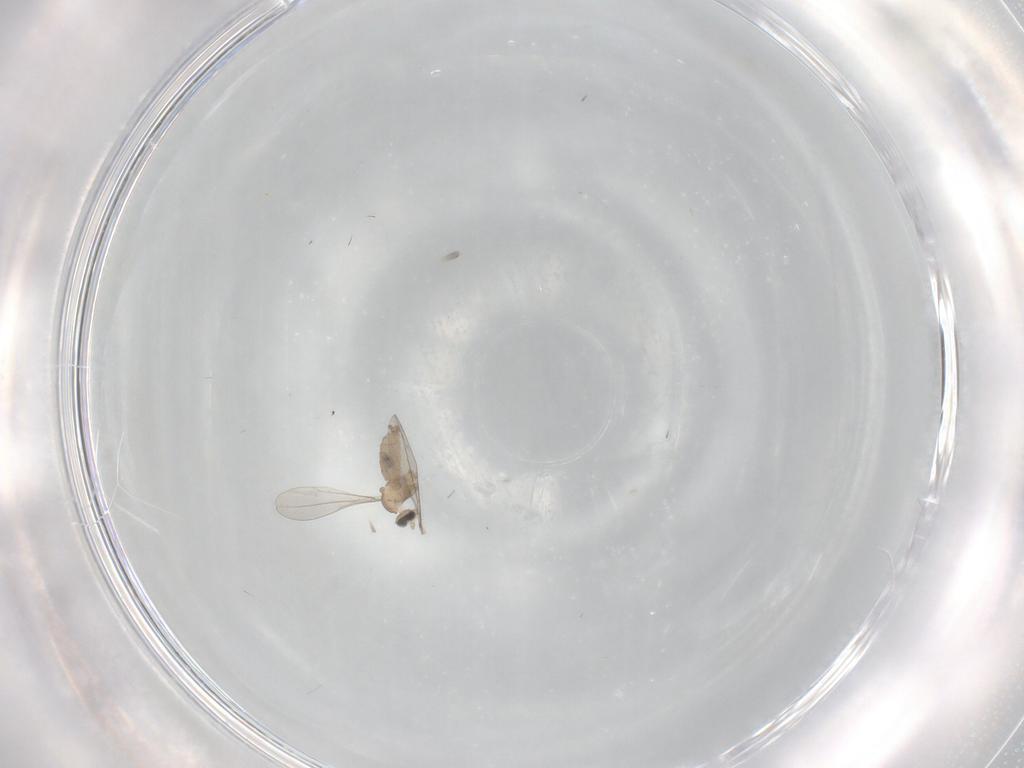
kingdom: Animalia
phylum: Arthropoda
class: Insecta
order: Diptera
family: Cecidomyiidae
